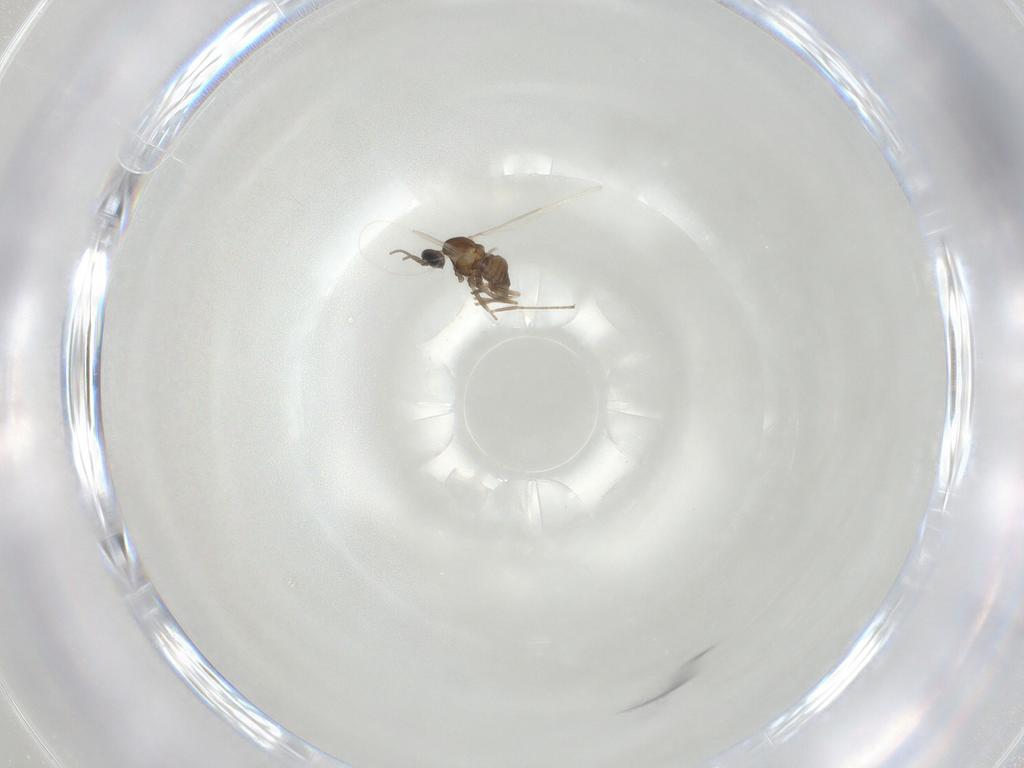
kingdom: Animalia
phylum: Arthropoda
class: Insecta
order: Diptera
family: Cecidomyiidae
